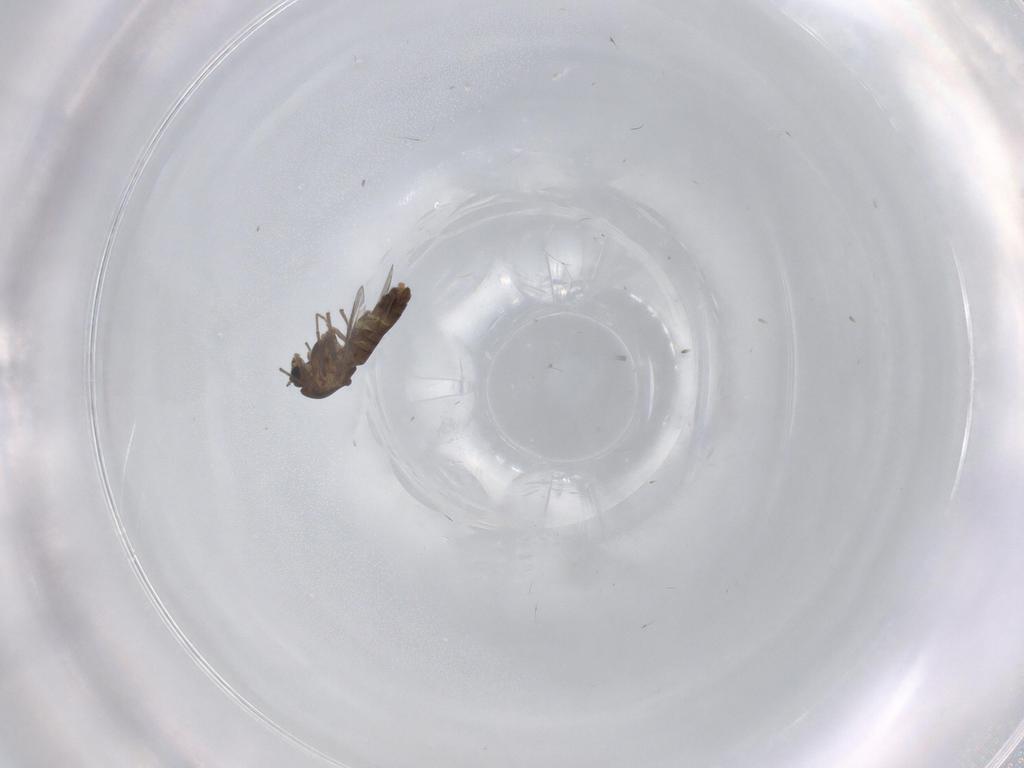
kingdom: Animalia
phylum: Arthropoda
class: Insecta
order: Diptera
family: Chironomidae
